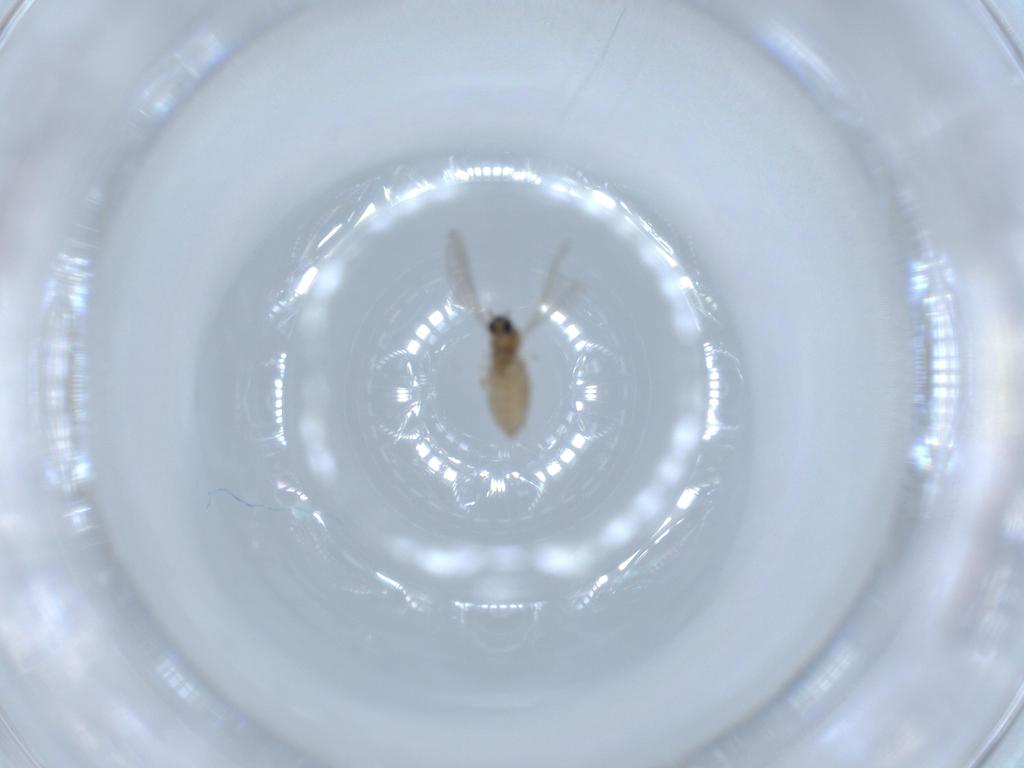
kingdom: Animalia
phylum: Arthropoda
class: Insecta
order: Diptera
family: Cecidomyiidae
